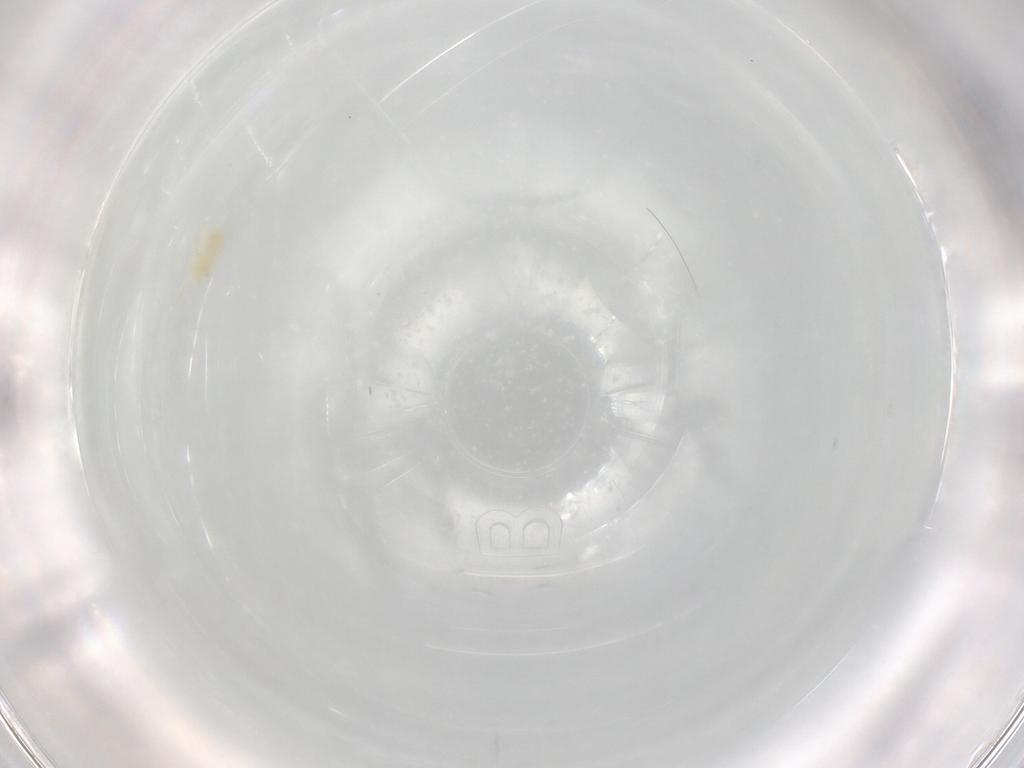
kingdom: Animalia
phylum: Arthropoda
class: Arachnida
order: Trombidiformes
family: Rhagidiidae
